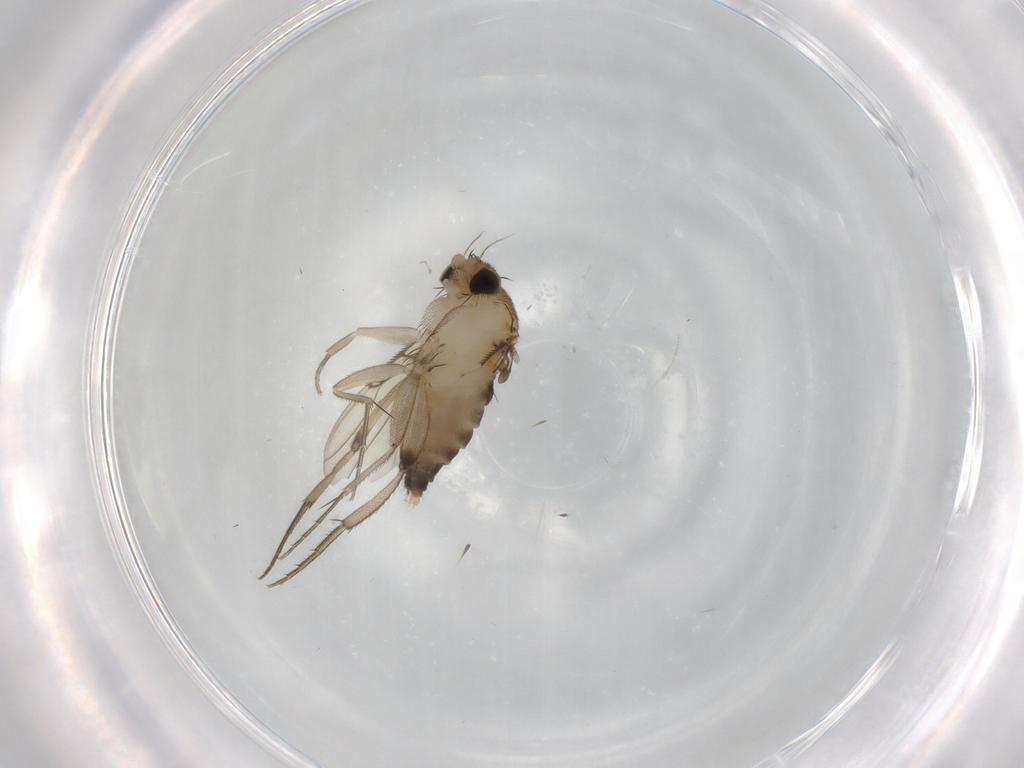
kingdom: Animalia
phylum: Arthropoda
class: Insecta
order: Diptera
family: Phoridae
